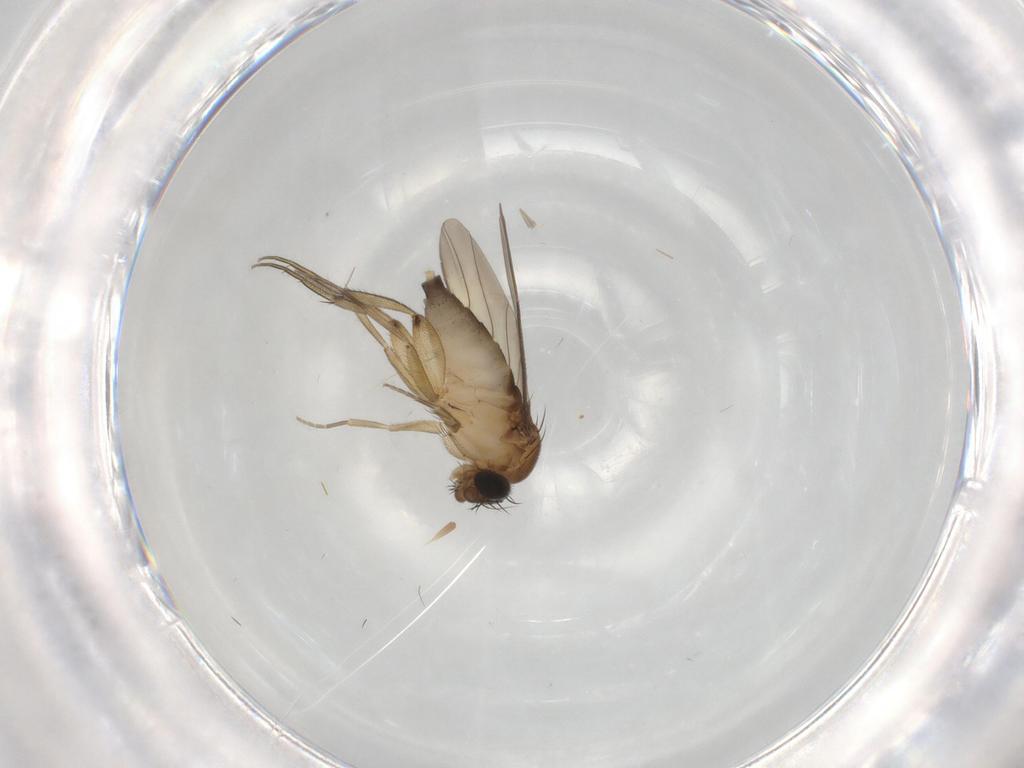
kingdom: Animalia
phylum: Arthropoda
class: Insecta
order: Diptera
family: Phoridae
